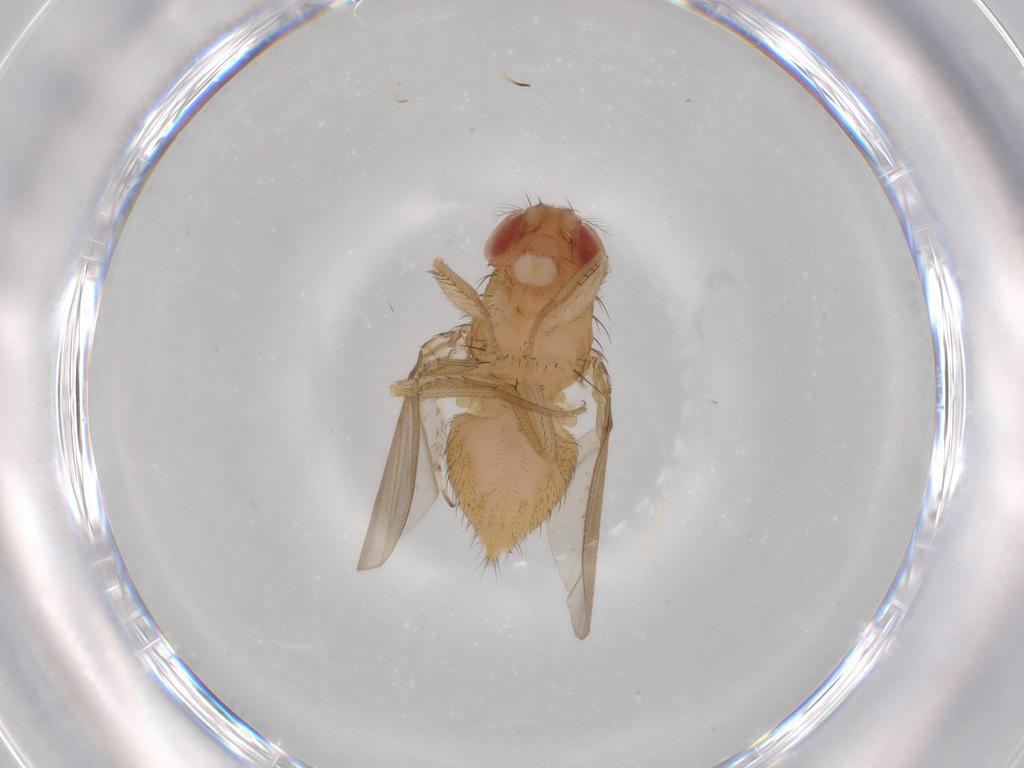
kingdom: Animalia
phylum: Arthropoda
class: Insecta
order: Diptera
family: Drosophilidae
